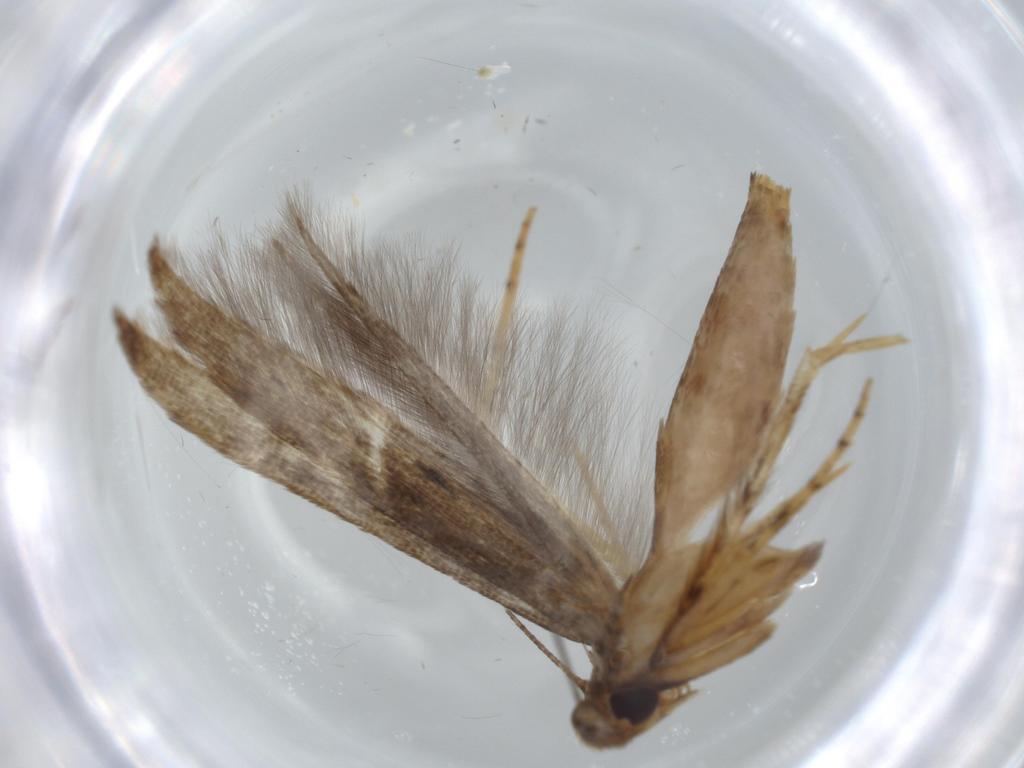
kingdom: Animalia
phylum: Arthropoda
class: Insecta
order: Lepidoptera
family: Heliodinidae
